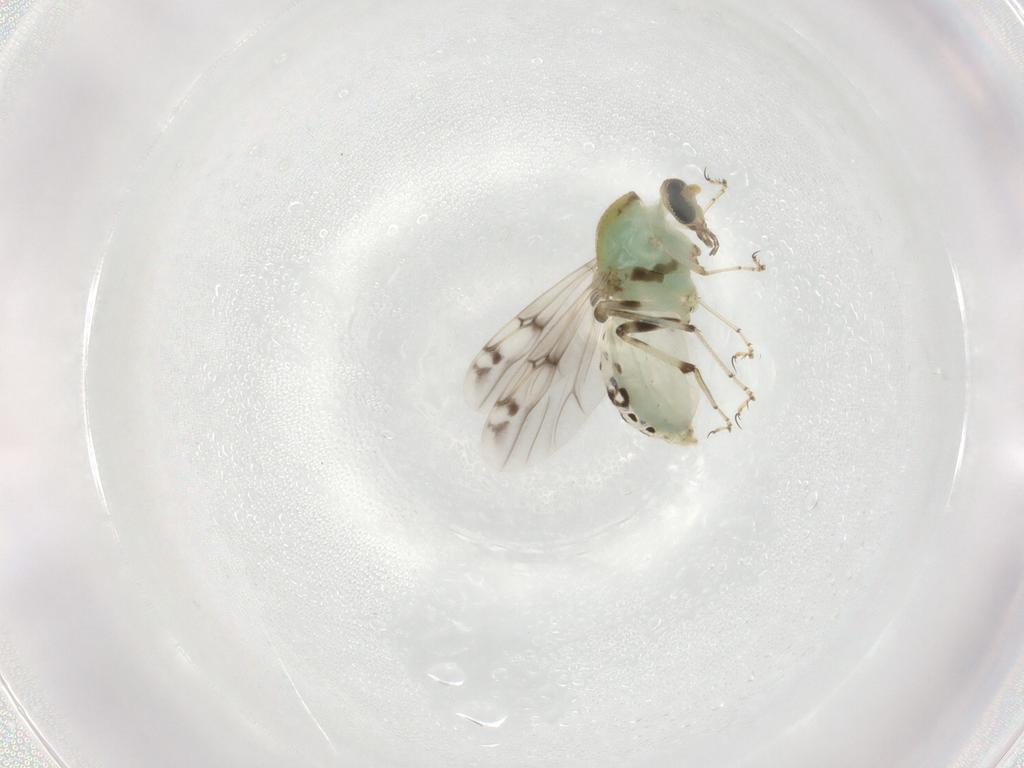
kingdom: Animalia
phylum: Arthropoda
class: Insecta
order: Diptera
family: Ceratopogonidae
